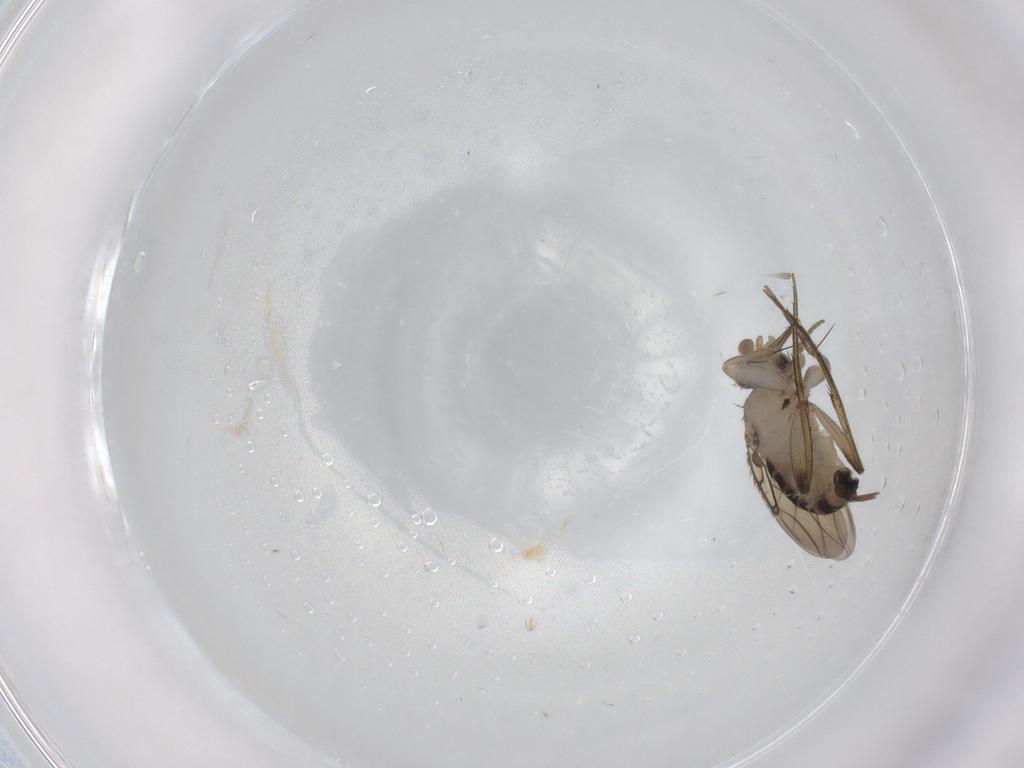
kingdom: Animalia
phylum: Arthropoda
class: Insecta
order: Diptera
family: Phoridae
